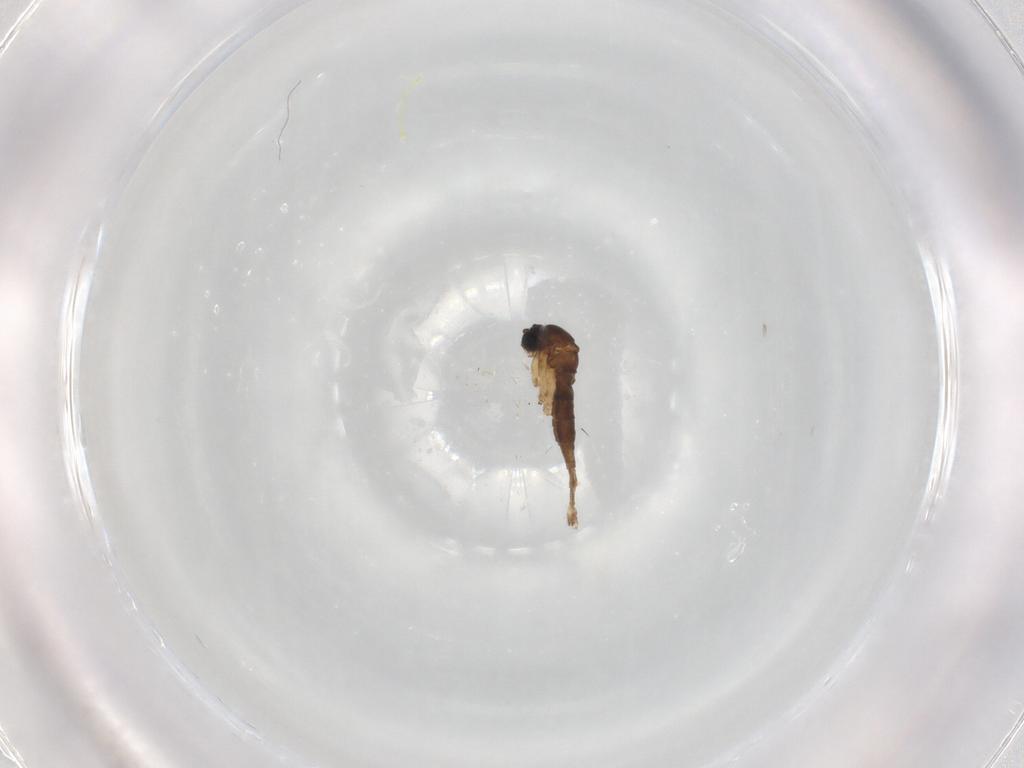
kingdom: Animalia
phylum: Arthropoda
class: Insecta
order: Diptera
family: Sciaridae
